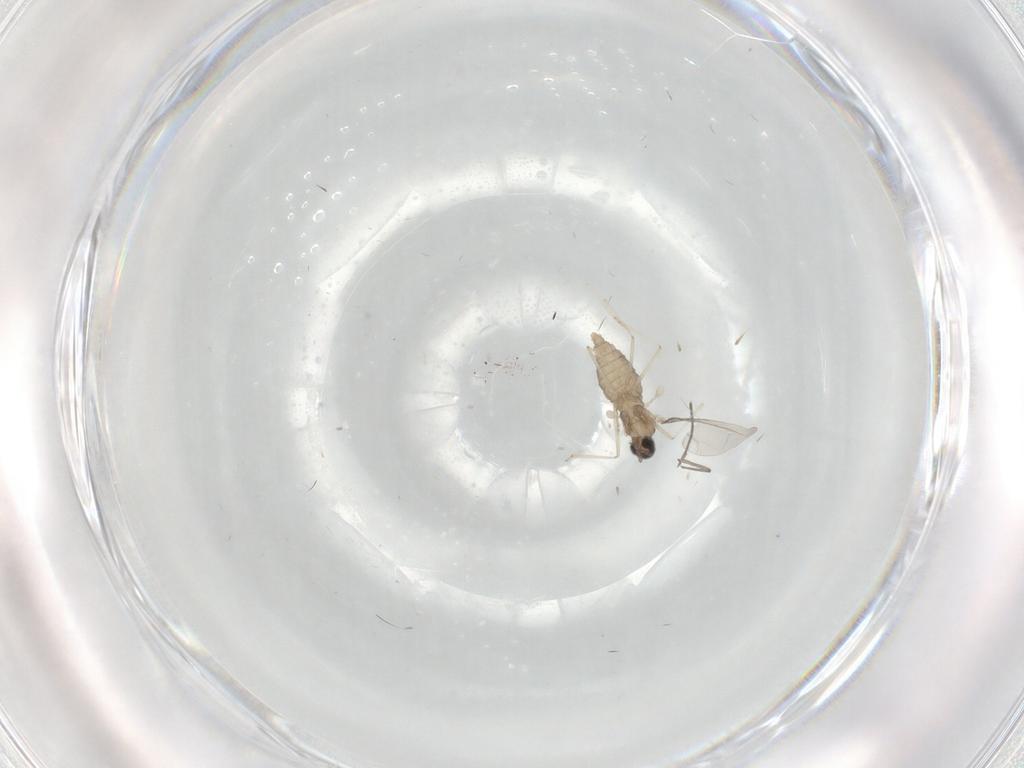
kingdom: Animalia
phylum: Arthropoda
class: Insecta
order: Diptera
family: Cecidomyiidae
